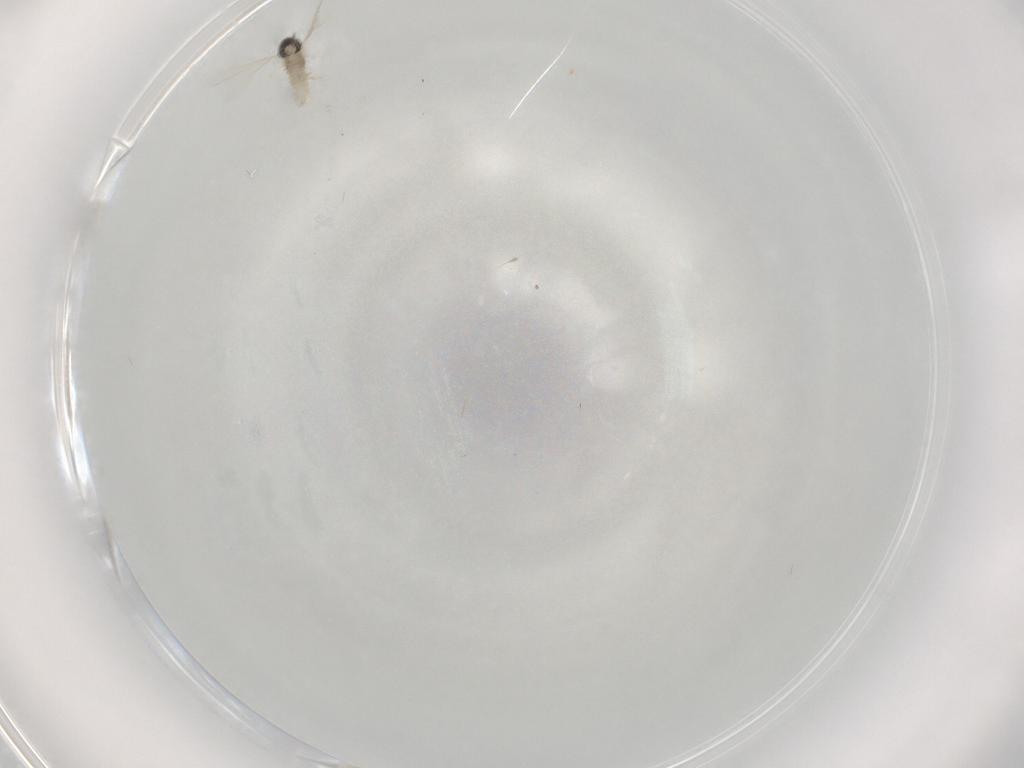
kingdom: Animalia
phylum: Arthropoda
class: Insecta
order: Diptera
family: Cecidomyiidae
